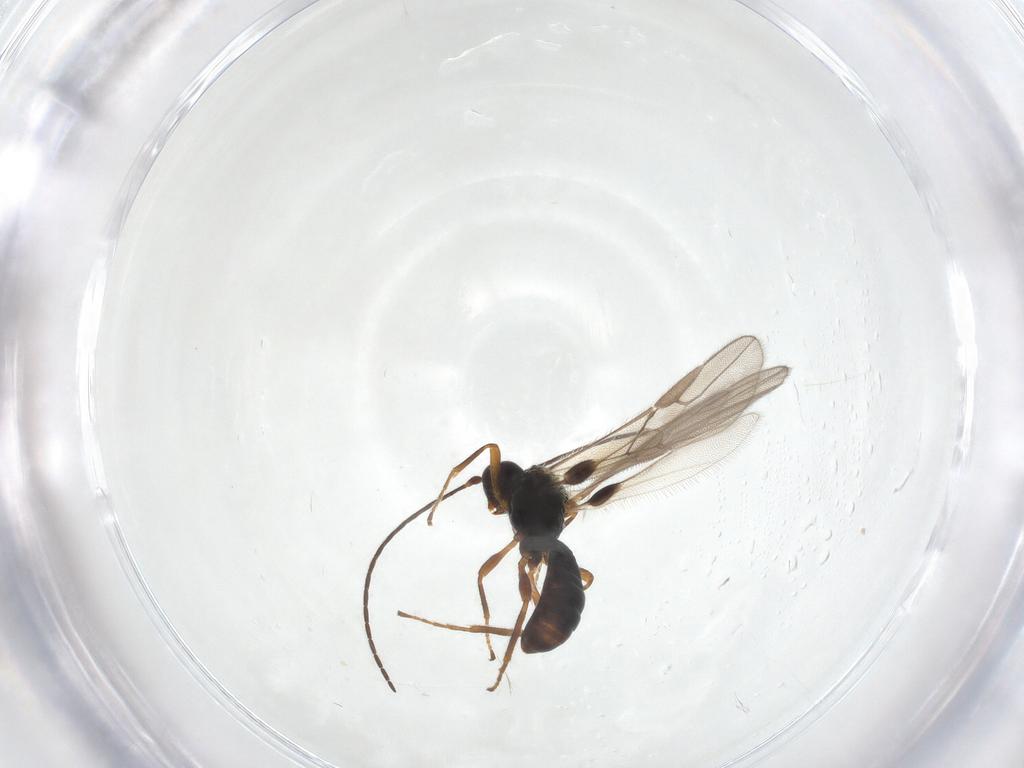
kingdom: Animalia
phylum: Arthropoda
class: Insecta
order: Hymenoptera
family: Braconidae
